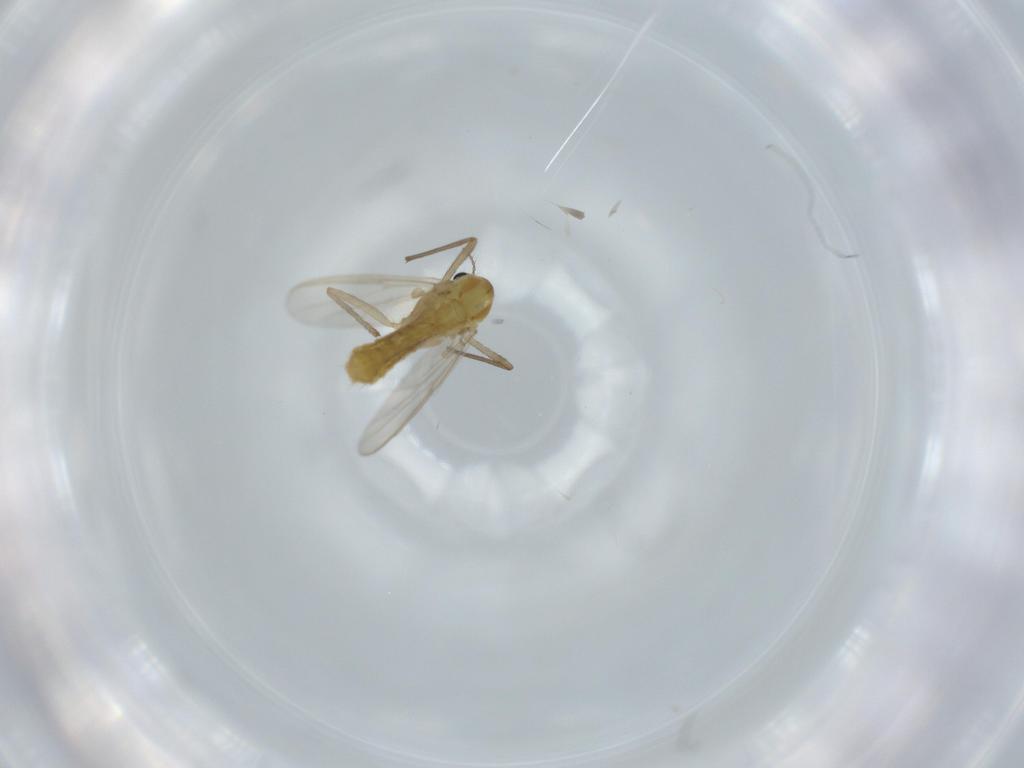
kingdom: Animalia
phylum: Arthropoda
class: Insecta
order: Diptera
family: Chironomidae
